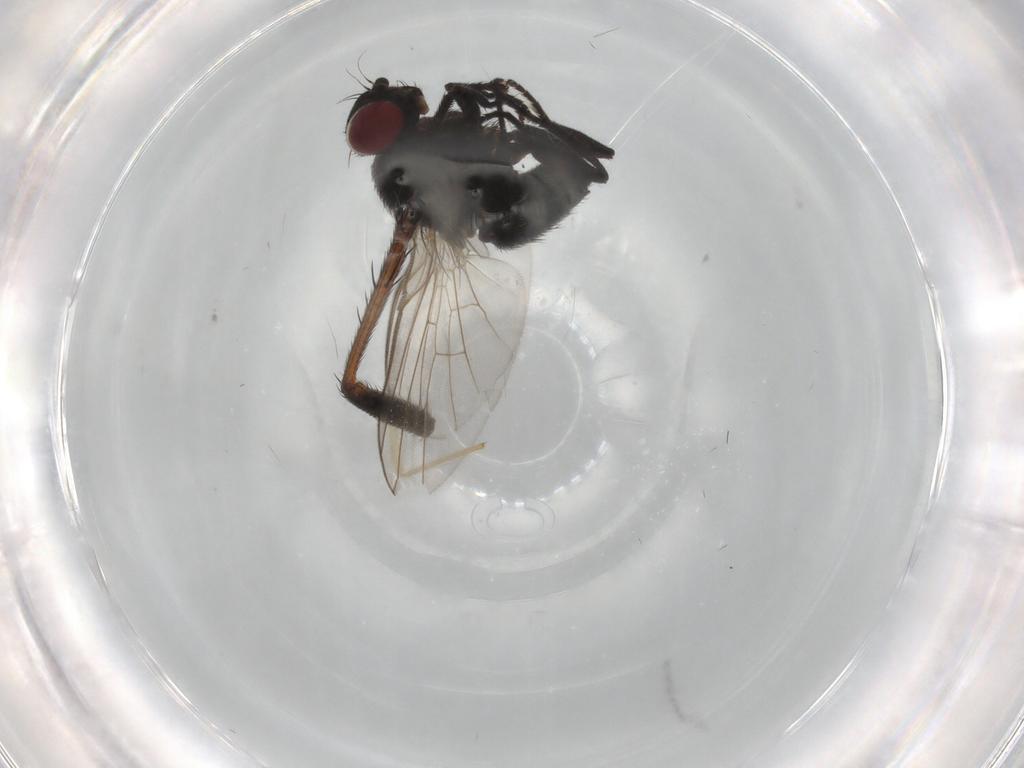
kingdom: Animalia
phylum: Arthropoda
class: Insecta
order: Diptera
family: Agromyzidae
